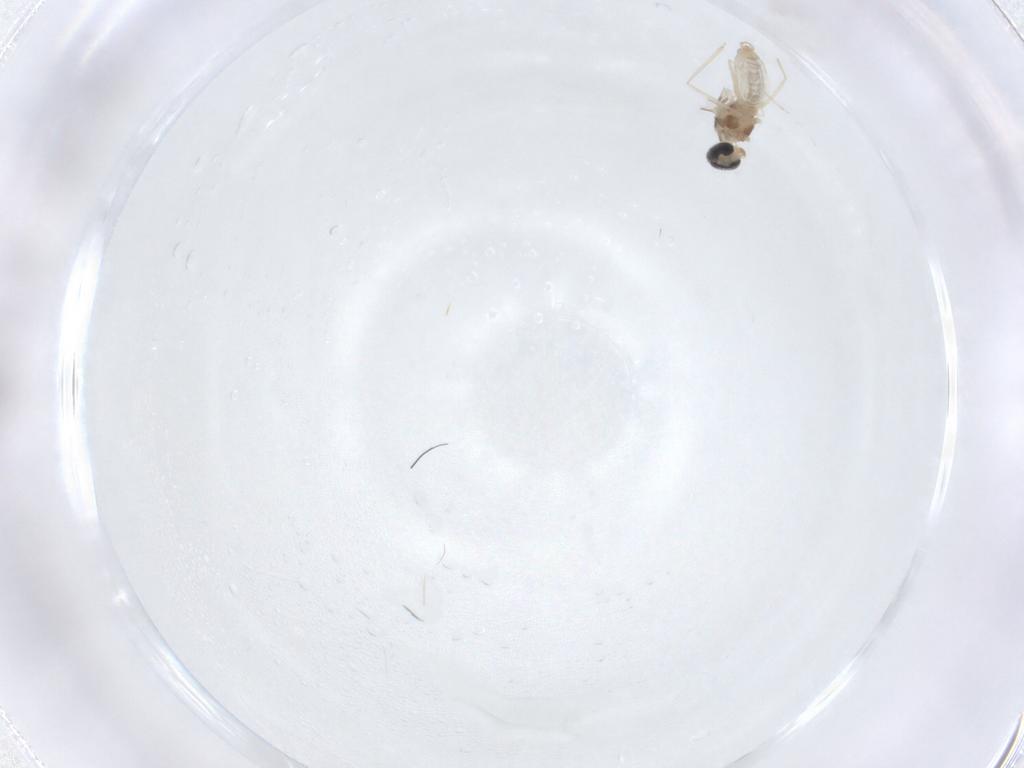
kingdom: Animalia
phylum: Arthropoda
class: Insecta
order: Diptera
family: Cecidomyiidae
